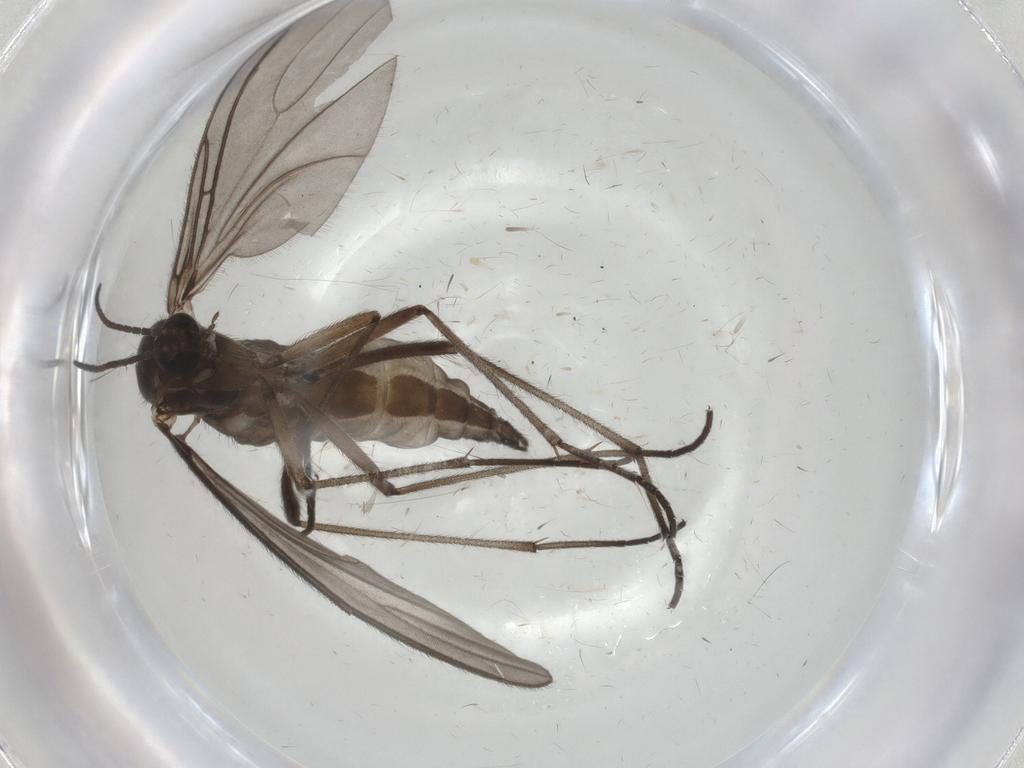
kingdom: Animalia
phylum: Arthropoda
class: Insecta
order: Diptera
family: Sciaridae
